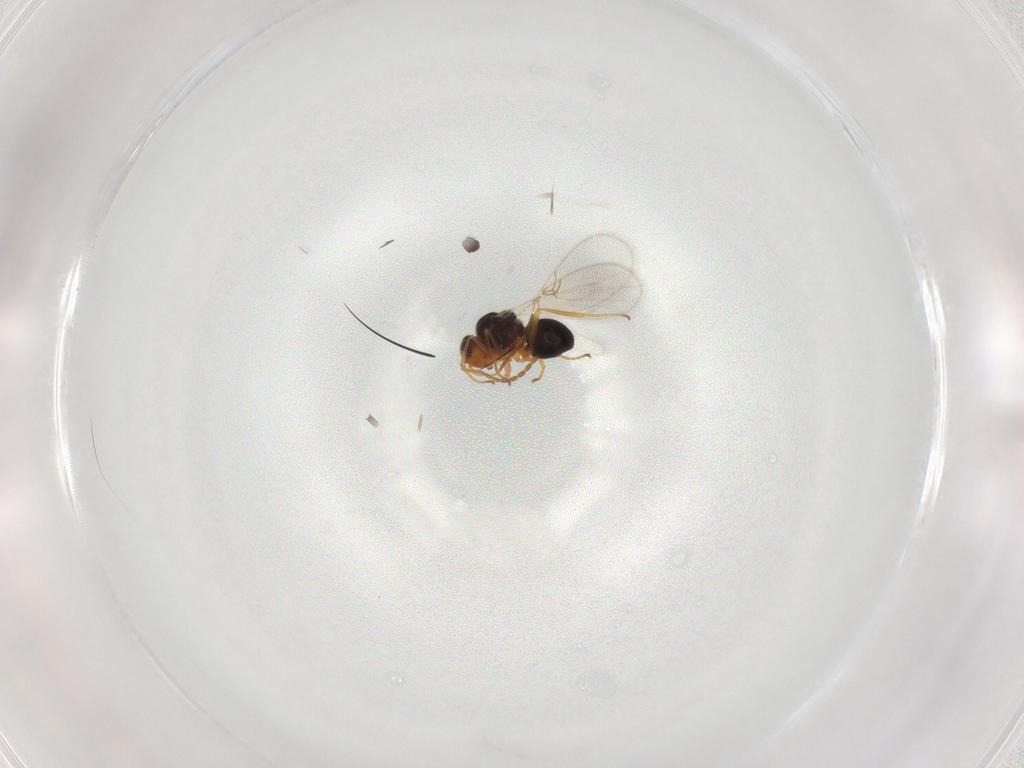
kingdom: Animalia
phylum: Arthropoda
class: Insecta
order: Hymenoptera
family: Figitidae
